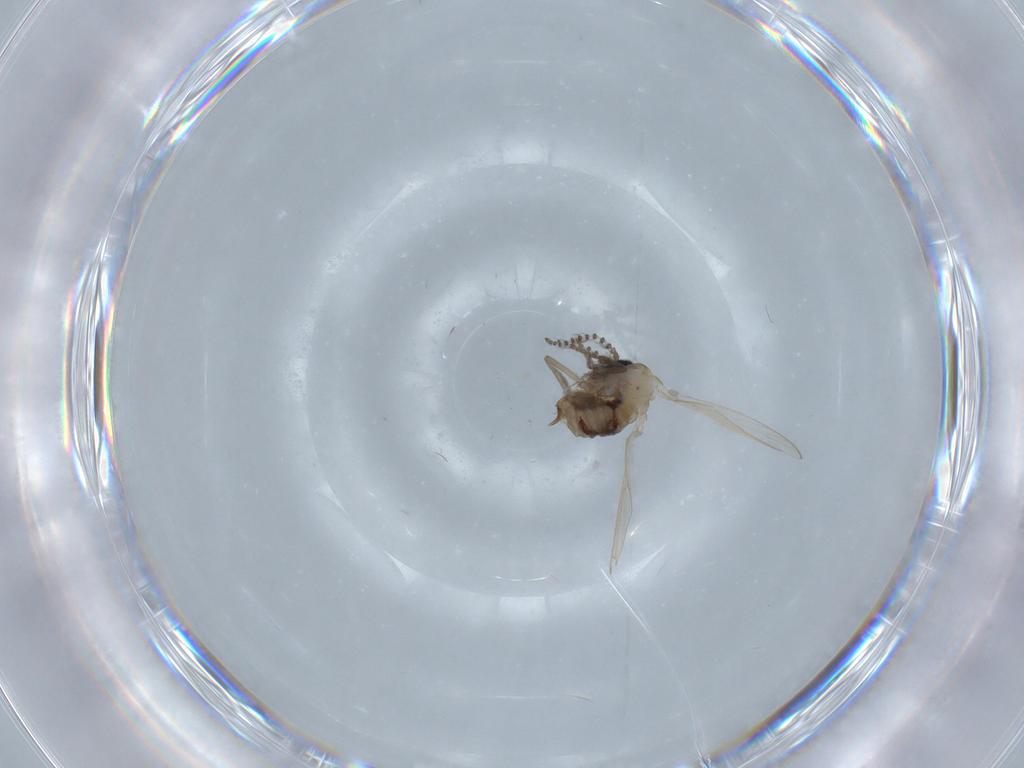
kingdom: Animalia
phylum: Arthropoda
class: Insecta
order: Diptera
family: Psychodidae
